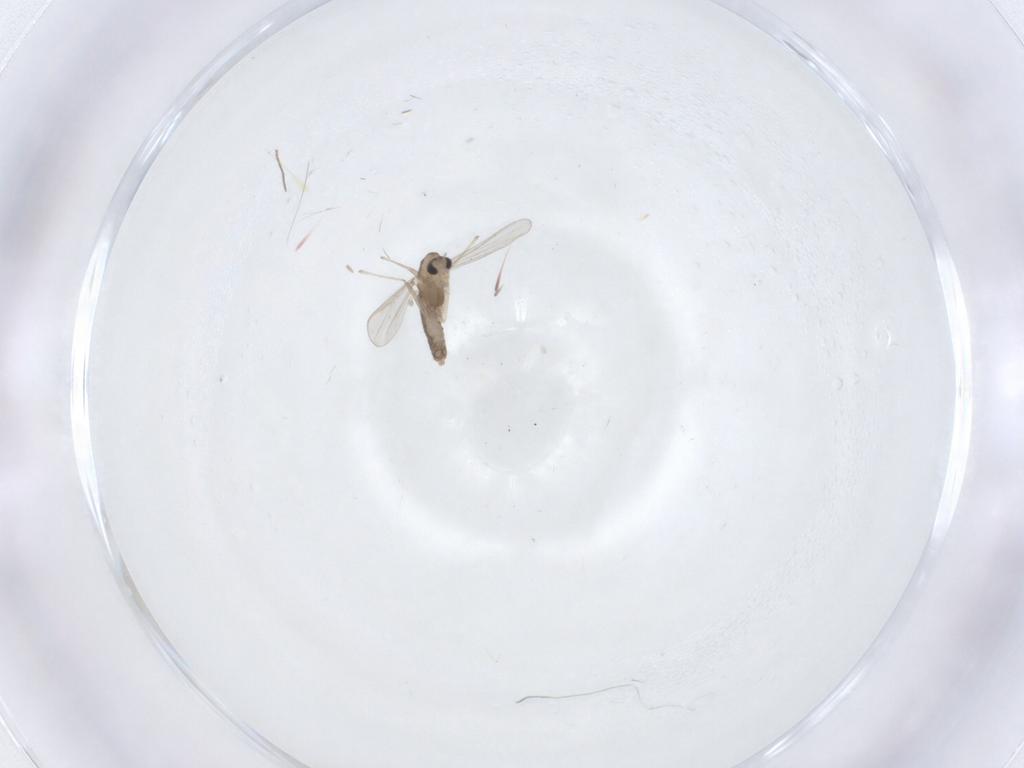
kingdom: Animalia
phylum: Arthropoda
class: Insecta
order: Diptera
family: Chironomidae
